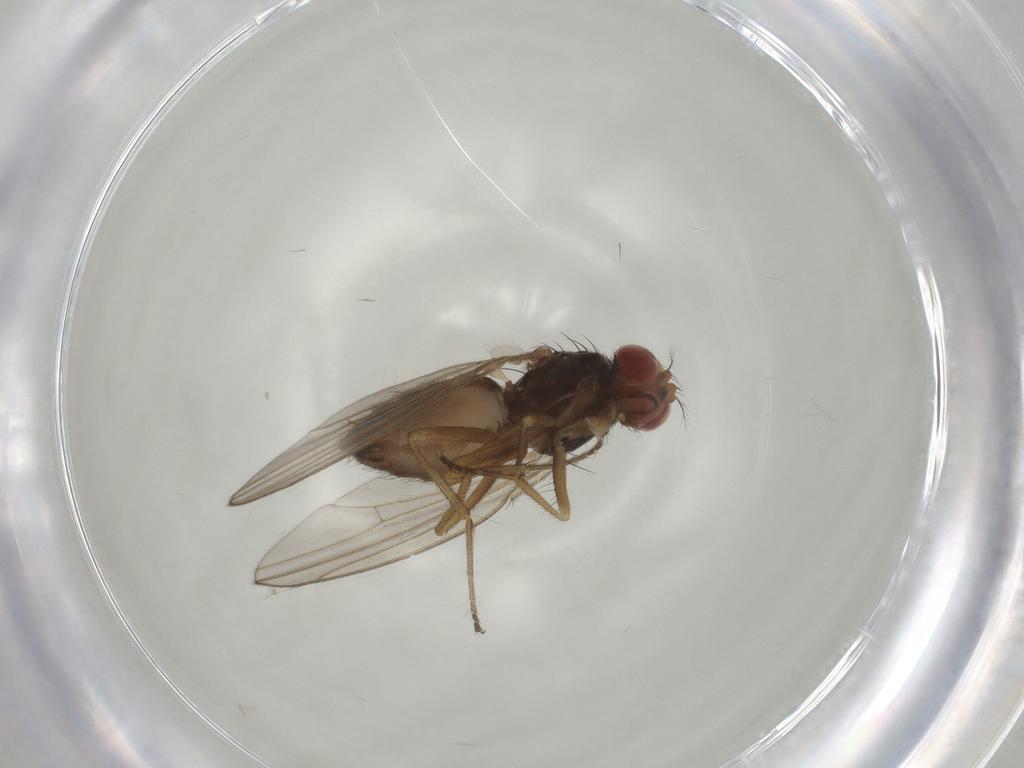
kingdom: Animalia
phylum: Arthropoda
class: Insecta
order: Diptera
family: Drosophilidae
